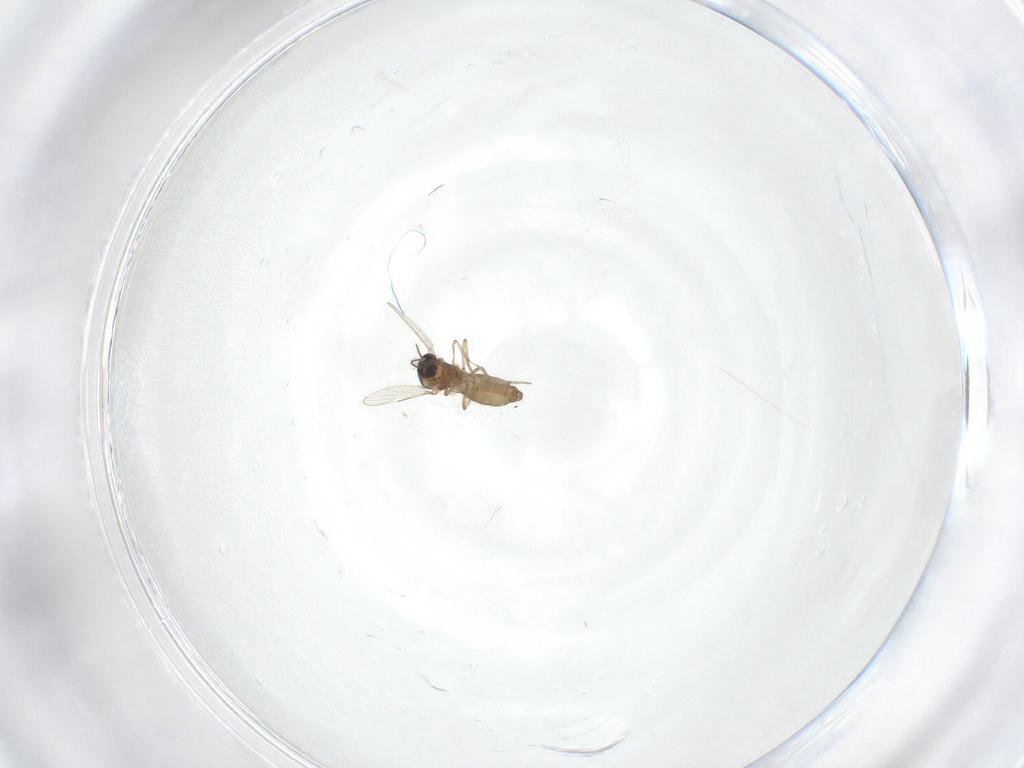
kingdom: Animalia
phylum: Arthropoda
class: Insecta
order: Diptera
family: Ceratopogonidae
